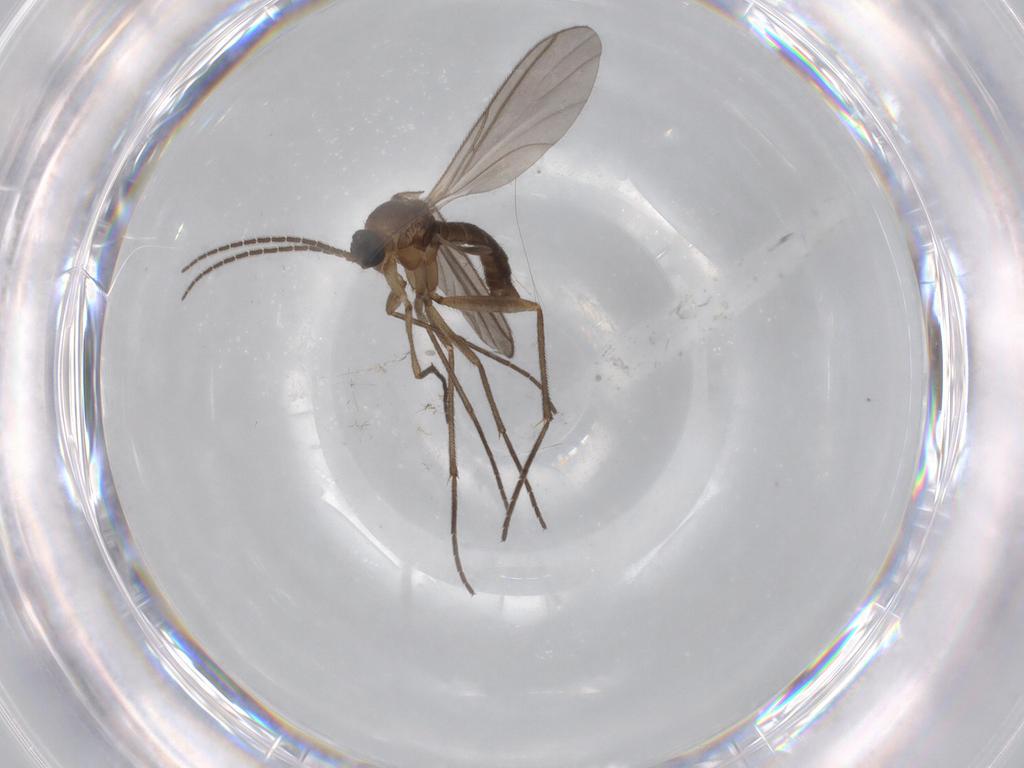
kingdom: Animalia
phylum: Arthropoda
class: Insecta
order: Diptera
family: Sciaridae
